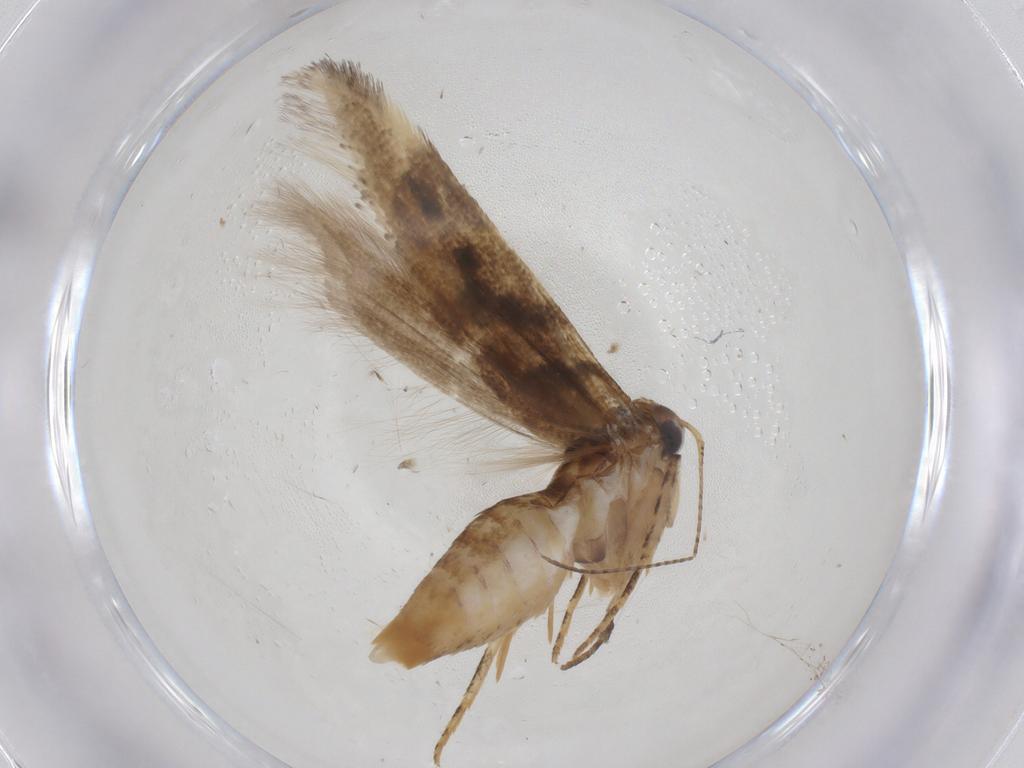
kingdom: Animalia
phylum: Arthropoda
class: Insecta
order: Lepidoptera
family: Gelechiidae
